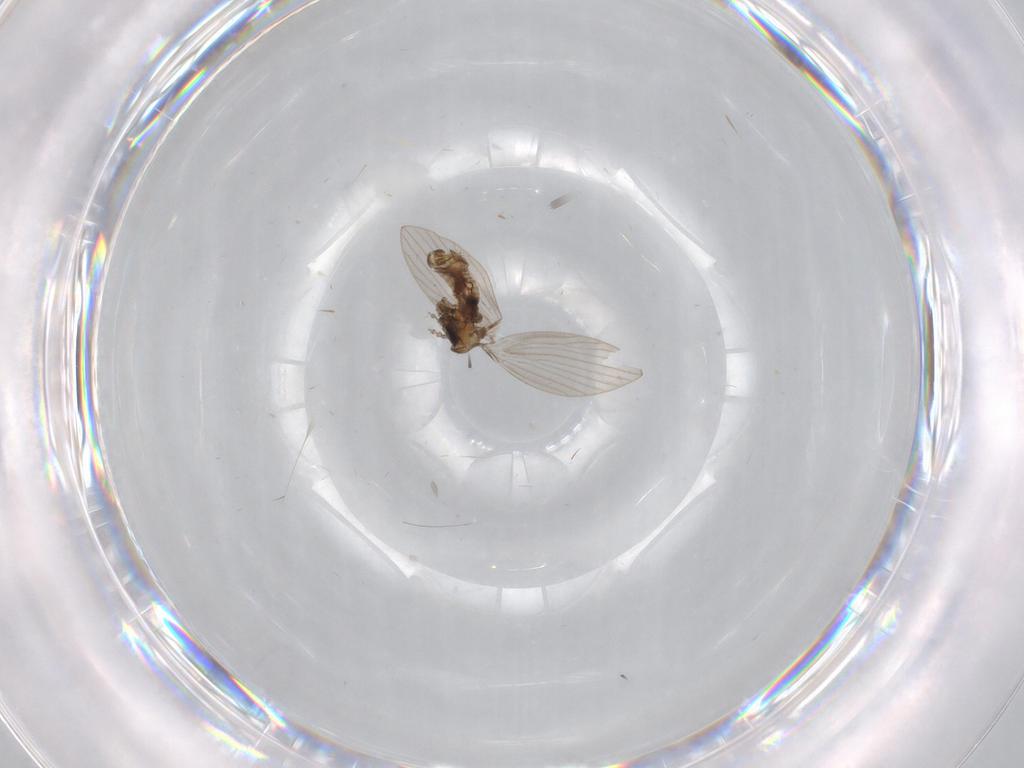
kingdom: Animalia
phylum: Arthropoda
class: Insecta
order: Diptera
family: Psychodidae
